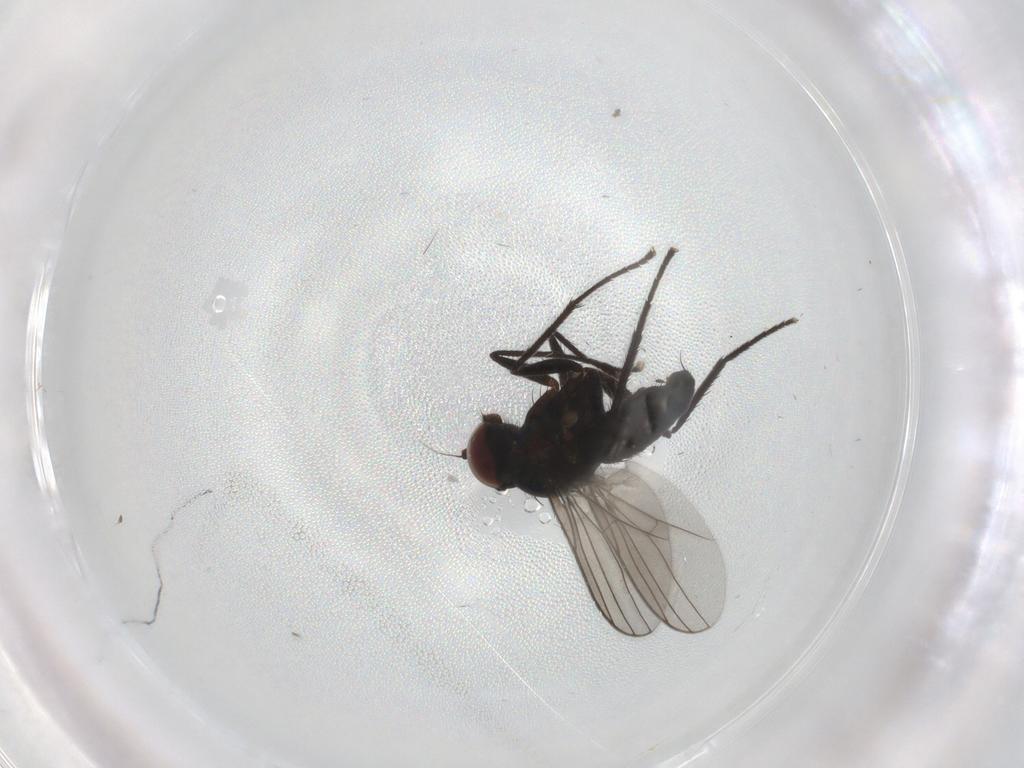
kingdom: Animalia
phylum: Arthropoda
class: Insecta
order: Diptera
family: Dolichopodidae
